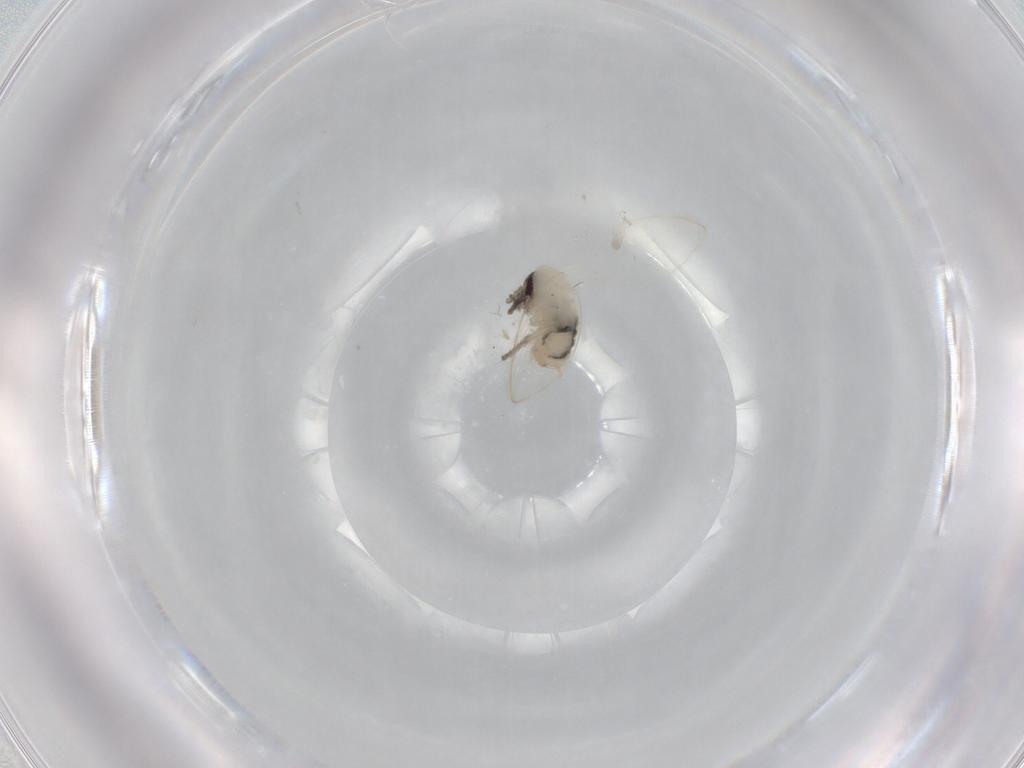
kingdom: Animalia
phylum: Arthropoda
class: Insecta
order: Diptera
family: Psychodidae
